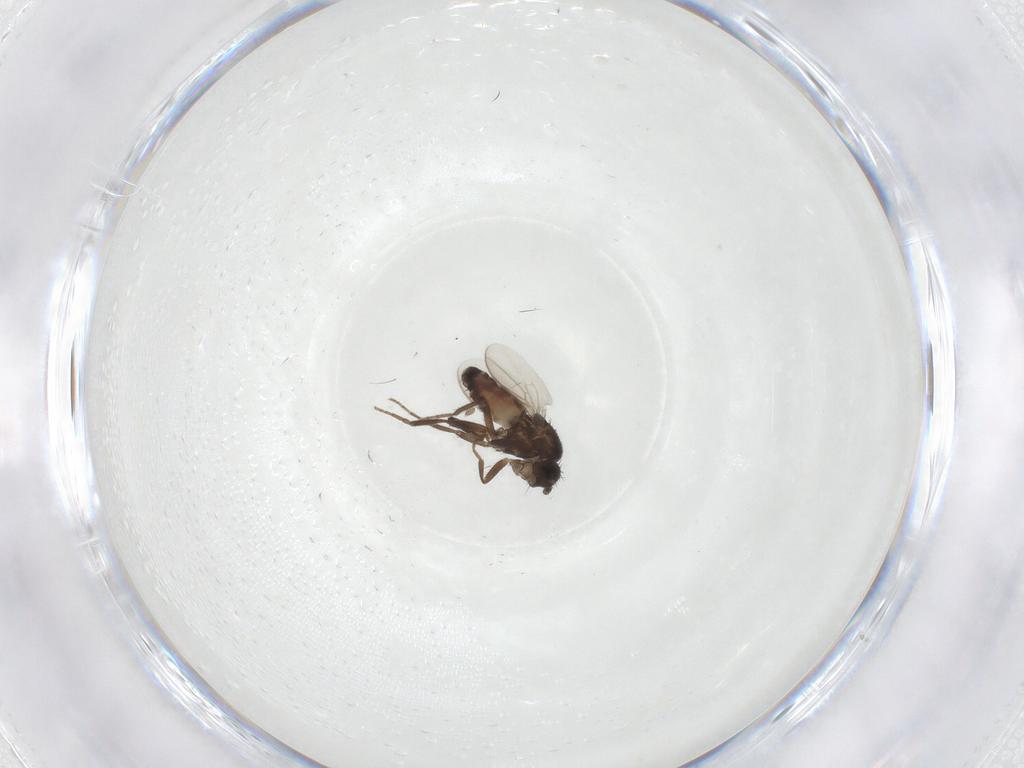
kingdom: Animalia
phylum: Arthropoda
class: Insecta
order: Diptera
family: Sphaeroceridae
